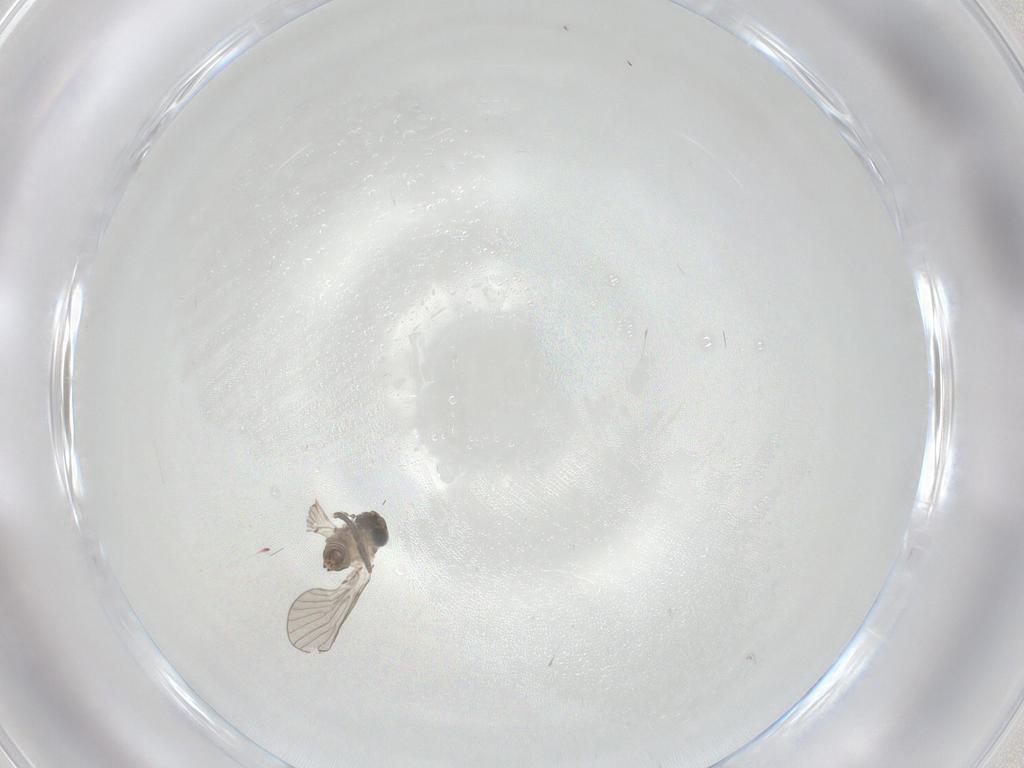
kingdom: Animalia
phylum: Arthropoda
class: Insecta
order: Diptera
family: Psychodidae
